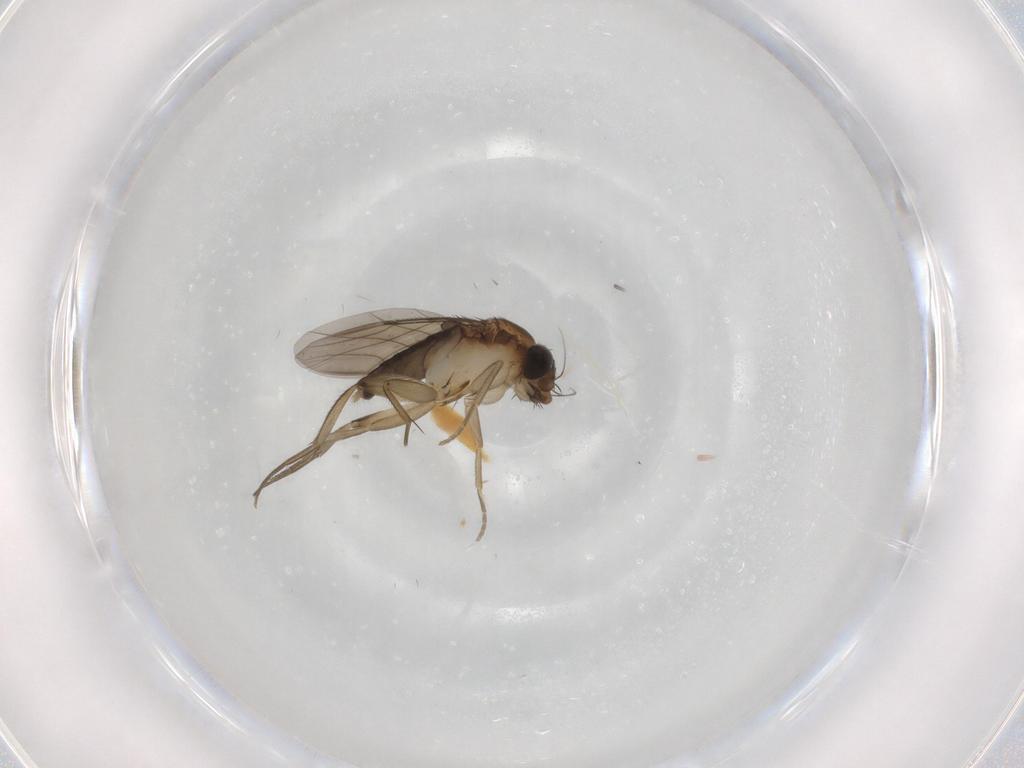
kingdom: Animalia
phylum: Arthropoda
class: Insecta
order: Diptera
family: Phoridae
